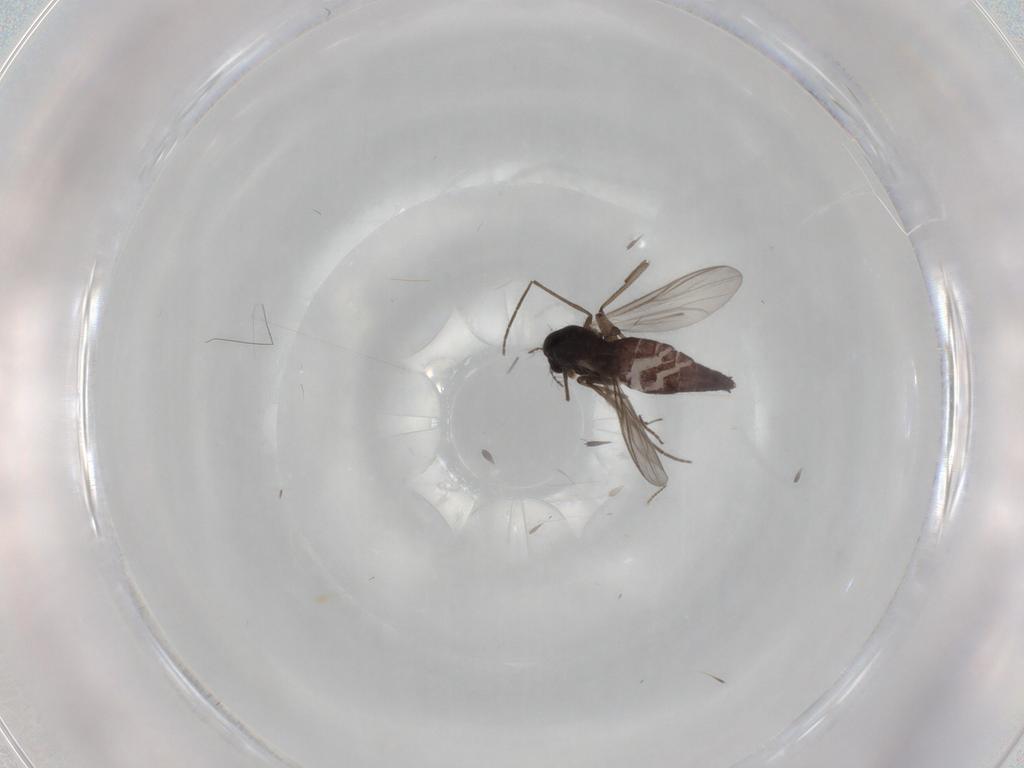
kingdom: Animalia
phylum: Arthropoda
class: Insecta
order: Diptera
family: Chironomidae
